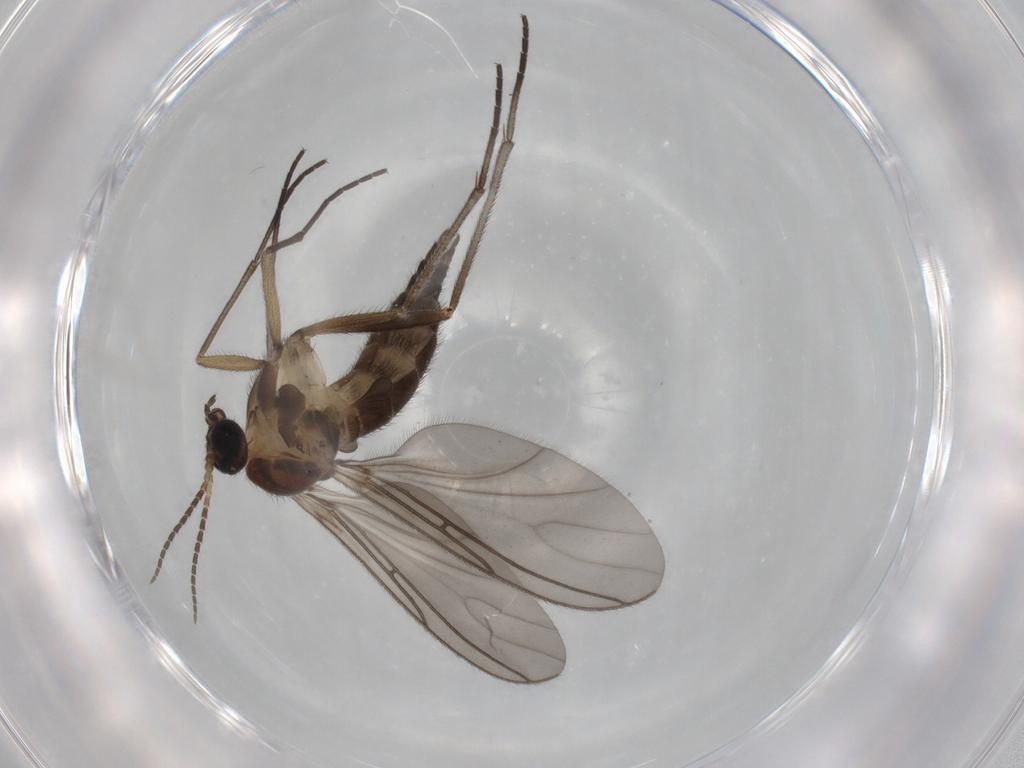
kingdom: Animalia
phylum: Arthropoda
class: Insecta
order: Diptera
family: Sciaridae
